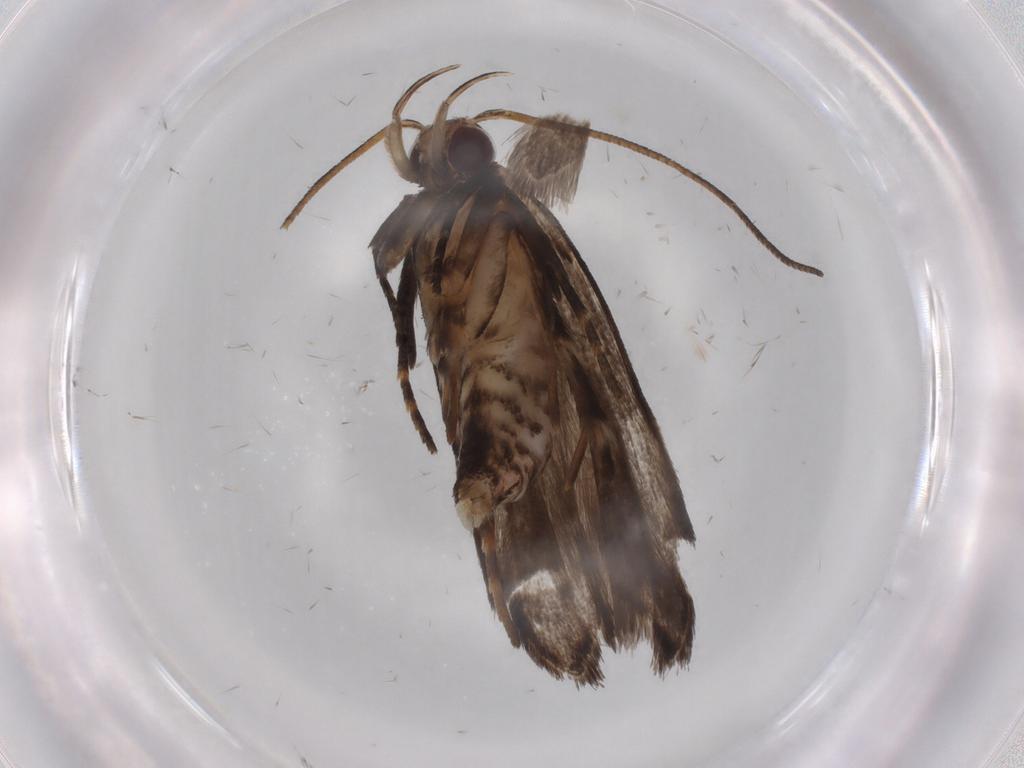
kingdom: Animalia
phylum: Arthropoda
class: Insecta
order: Lepidoptera
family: Gelechiidae
